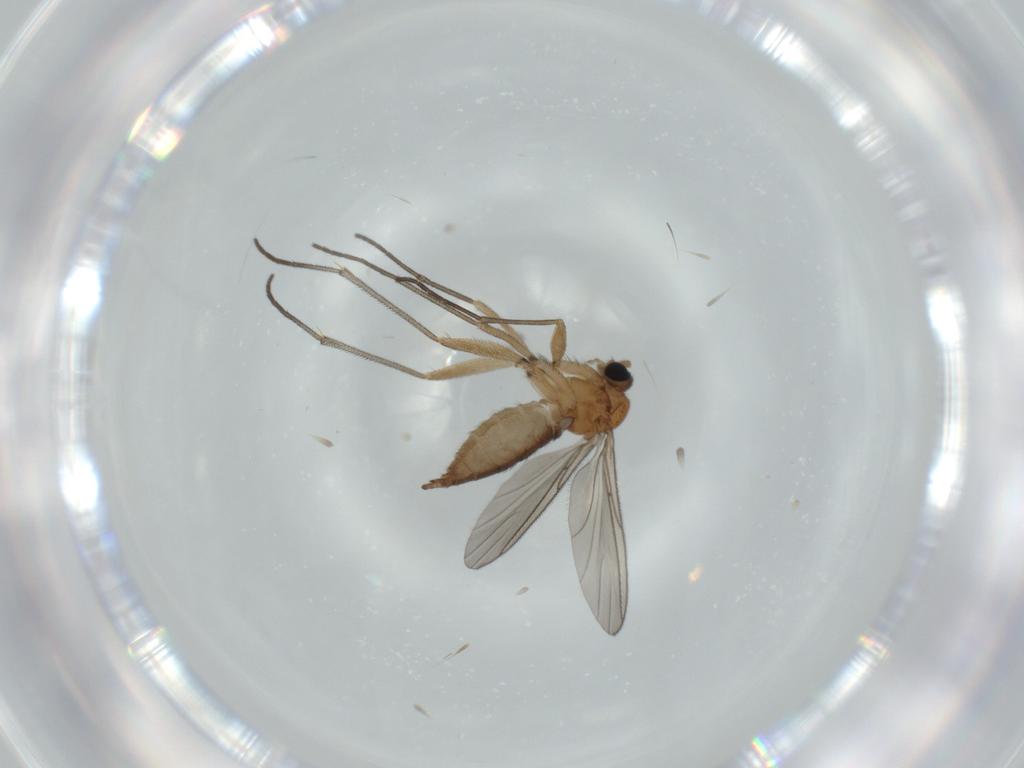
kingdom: Animalia
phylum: Arthropoda
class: Insecta
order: Diptera
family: Sciaridae
